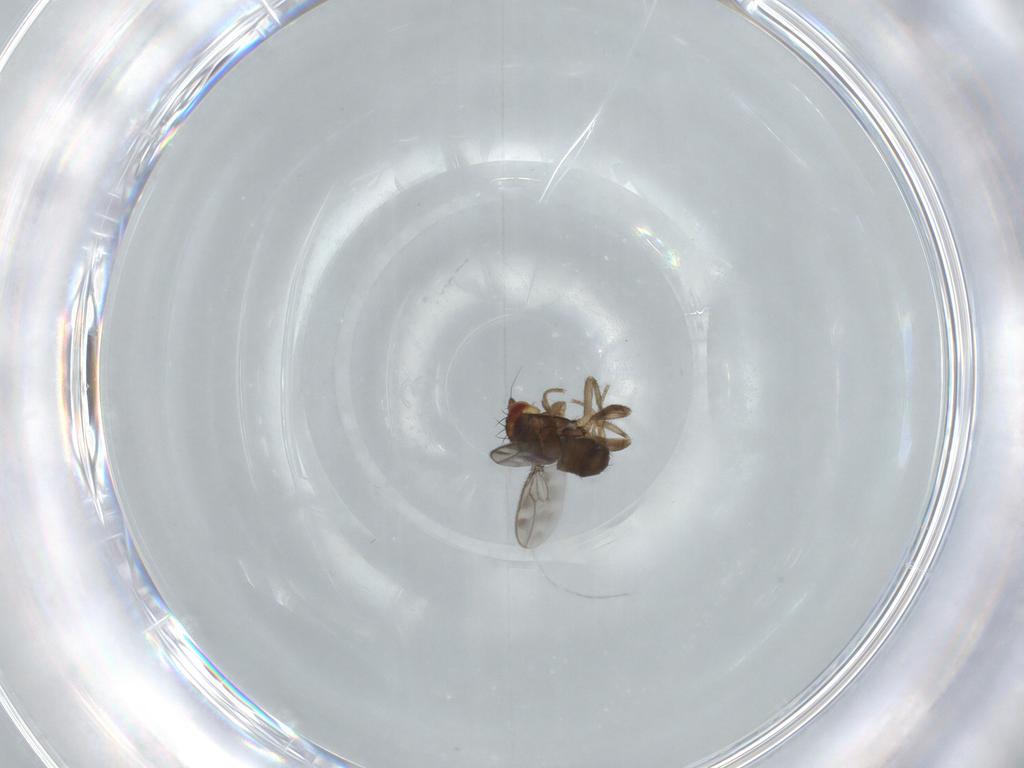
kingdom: Animalia
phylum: Arthropoda
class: Insecta
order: Diptera
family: Sphaeroceridae
